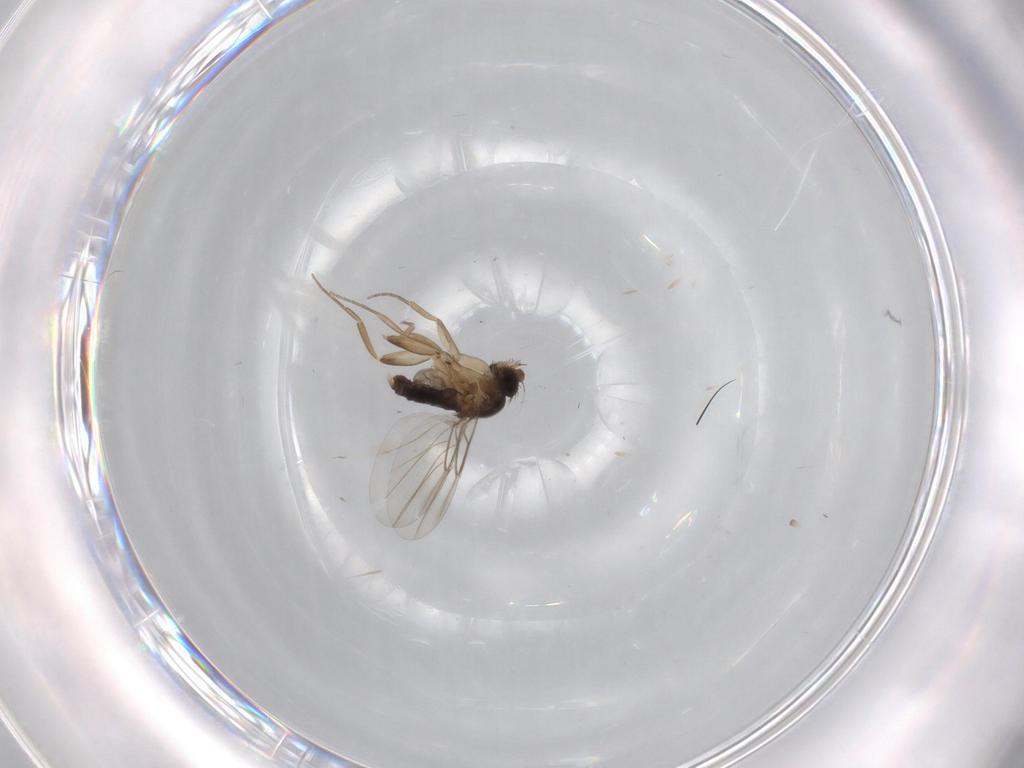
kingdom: Animalia
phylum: Arthropoda
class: Insecta
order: Diptera
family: Phoridae
